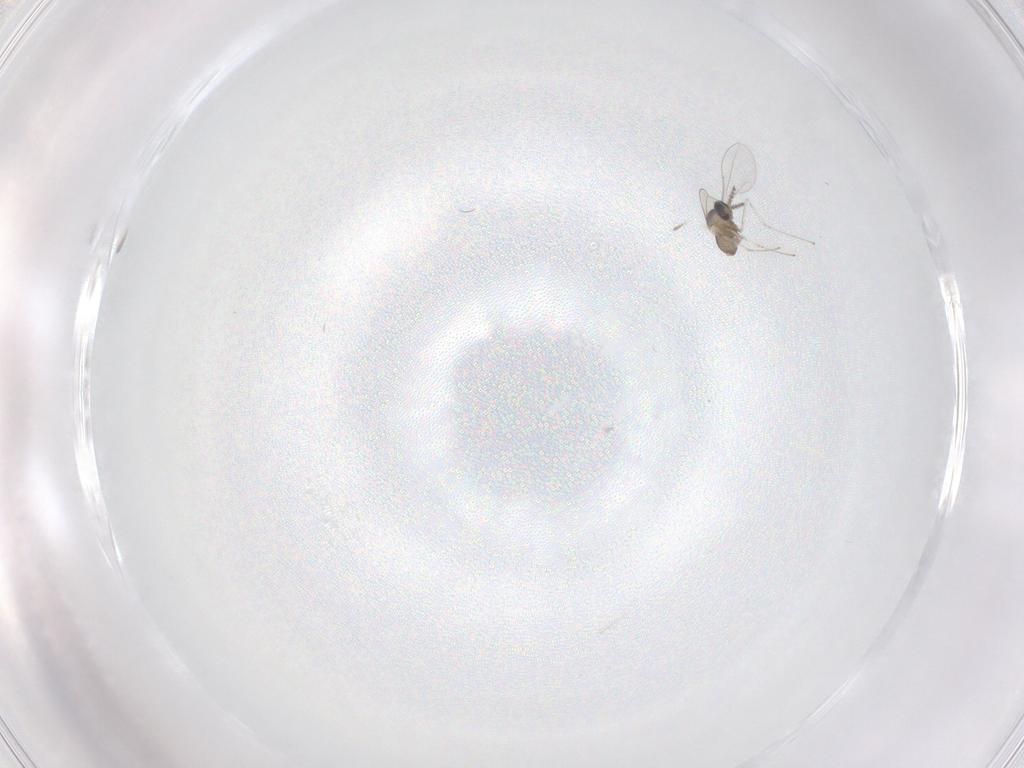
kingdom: Animalia
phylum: Arthropoda
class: Insecta
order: Diptera
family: Cecidomyiidae
